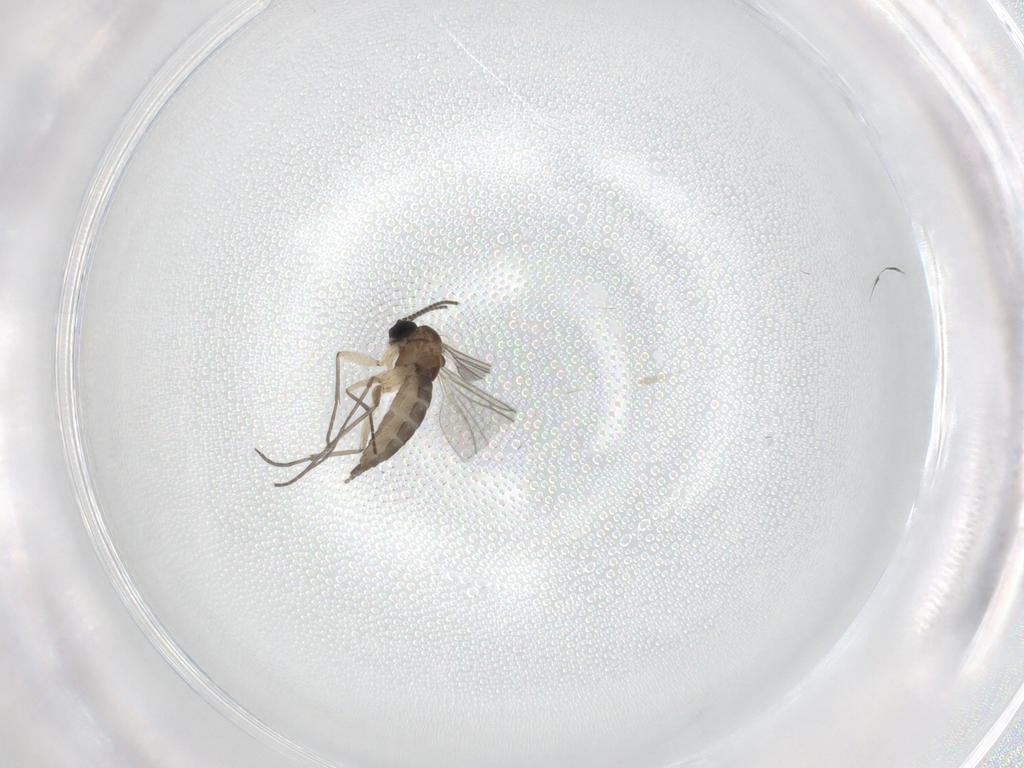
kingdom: Animalia
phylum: Arthropoda
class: Insecta
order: Diptera
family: Sciaridae
